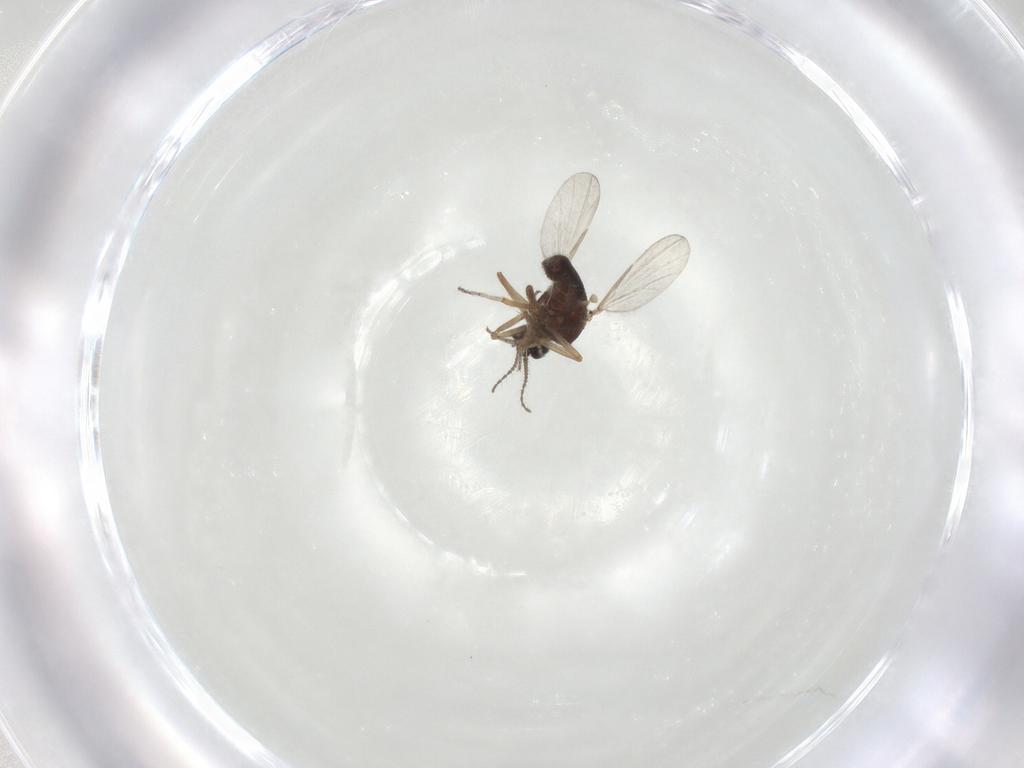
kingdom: Animalia
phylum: Arthropoda
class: Insecta
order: Diptera
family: Sciaridae
